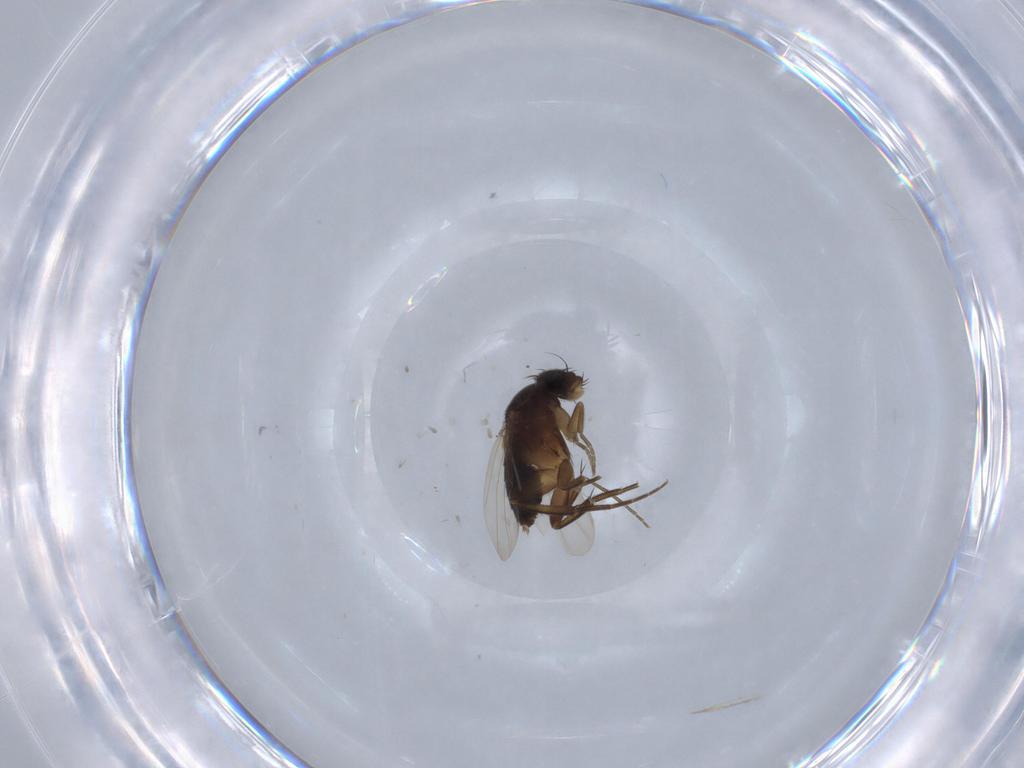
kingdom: Animalia
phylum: Arthropoda
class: Insecta
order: Diptera
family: Phoridae
